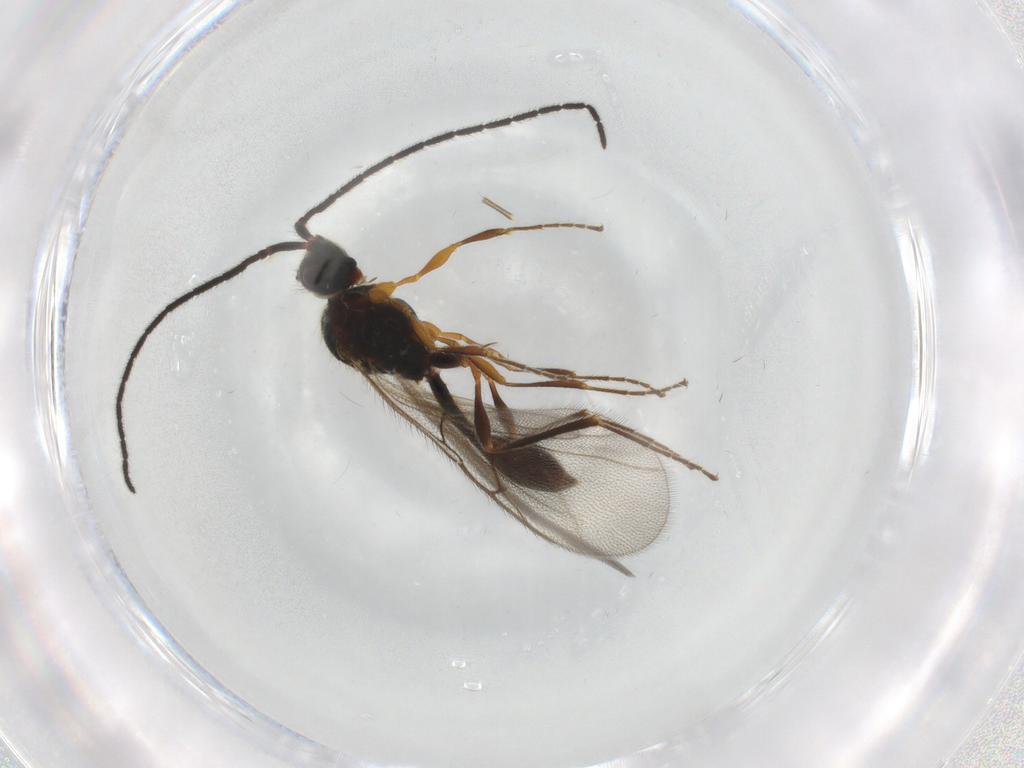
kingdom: Animalia
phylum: Arthropoda
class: Insecta
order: Hymenoptera
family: Diapriidae
